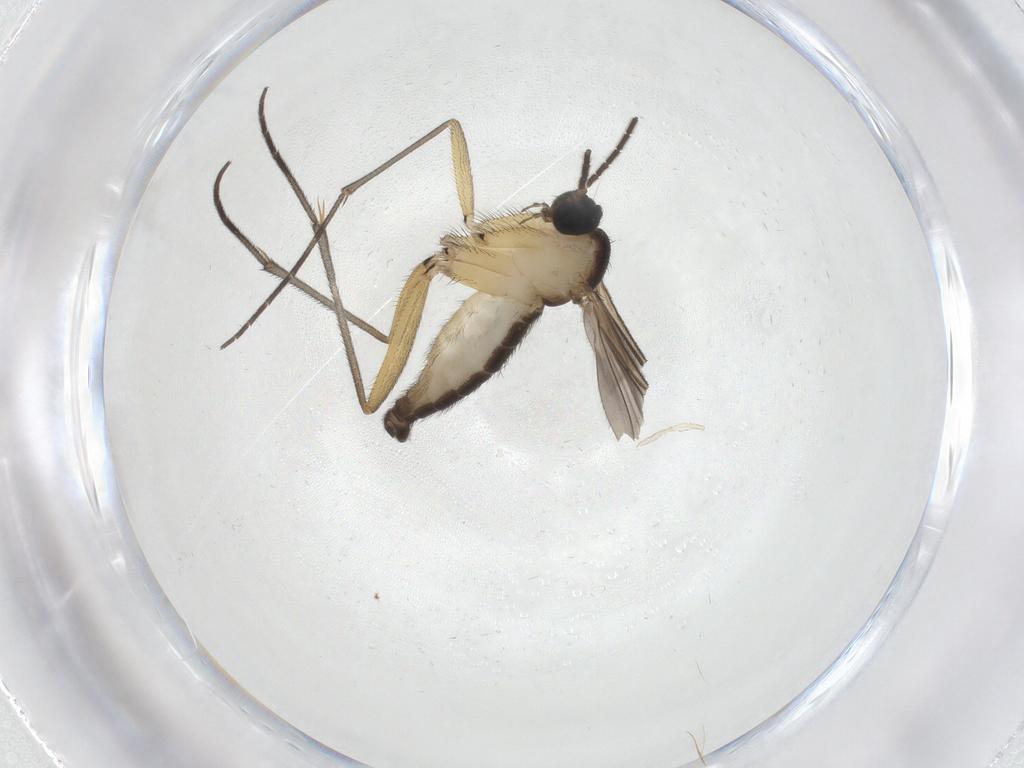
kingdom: Animalia
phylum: Arthropoda
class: Insecta
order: Diptera
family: Sciaridae
